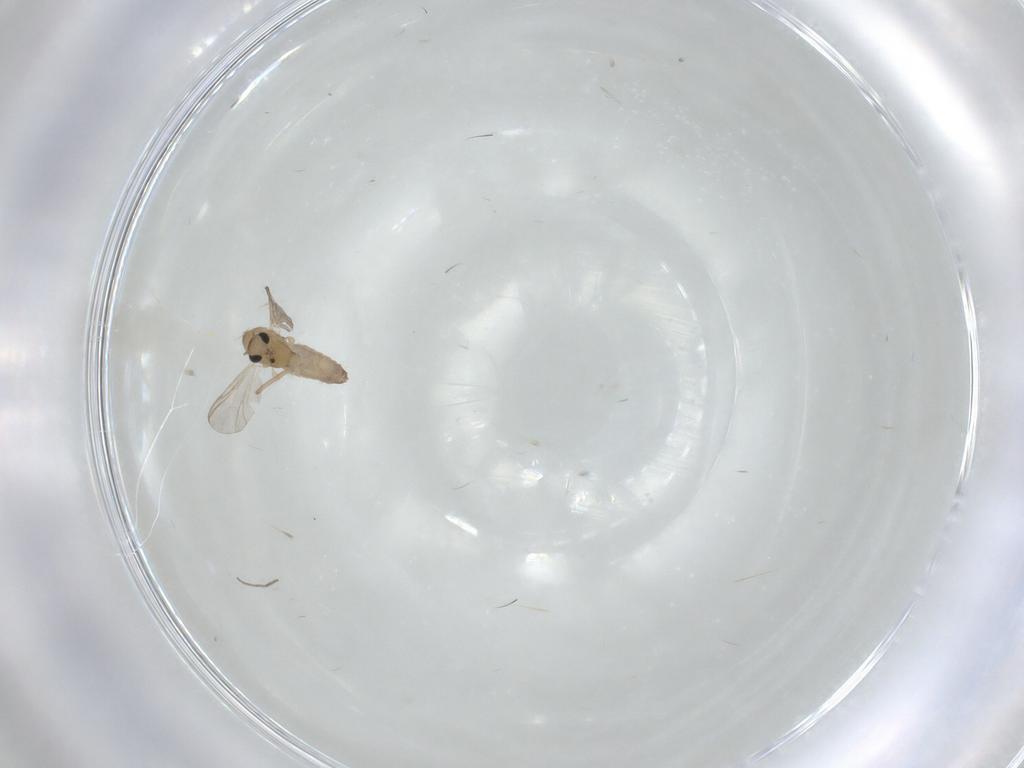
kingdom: Animalia
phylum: Arthropoda
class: Insecta
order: Diptera
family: Chironomidae
